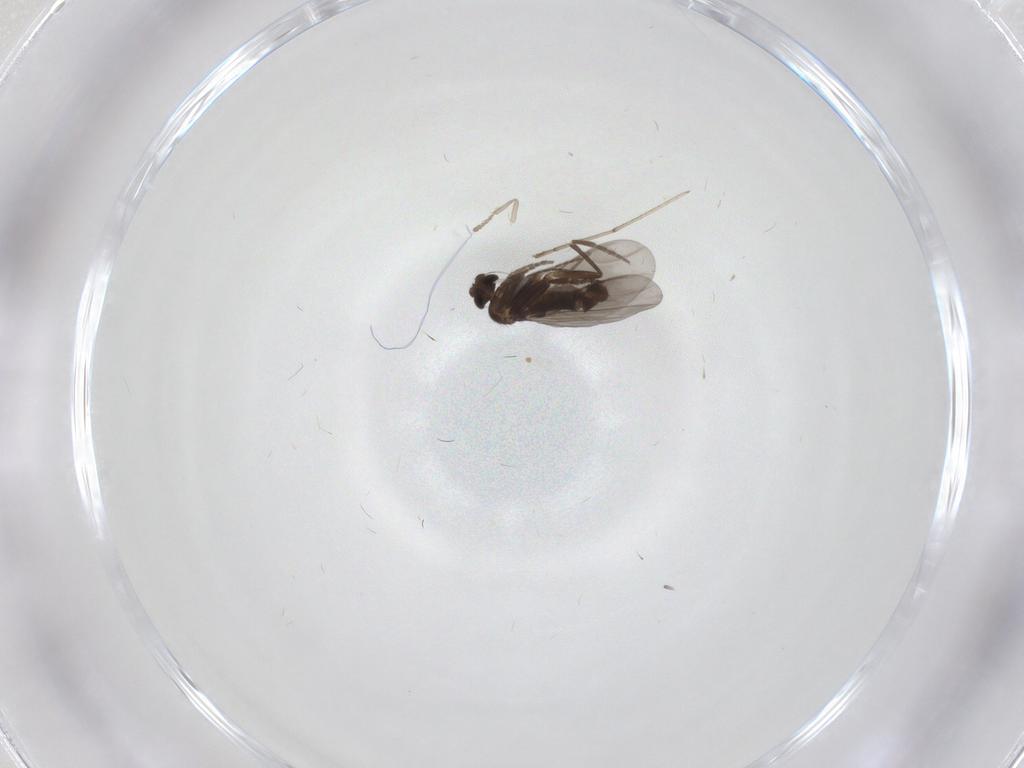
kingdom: Animalia
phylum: Arthropoda
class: Insecta
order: Diptera
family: Phoridae
